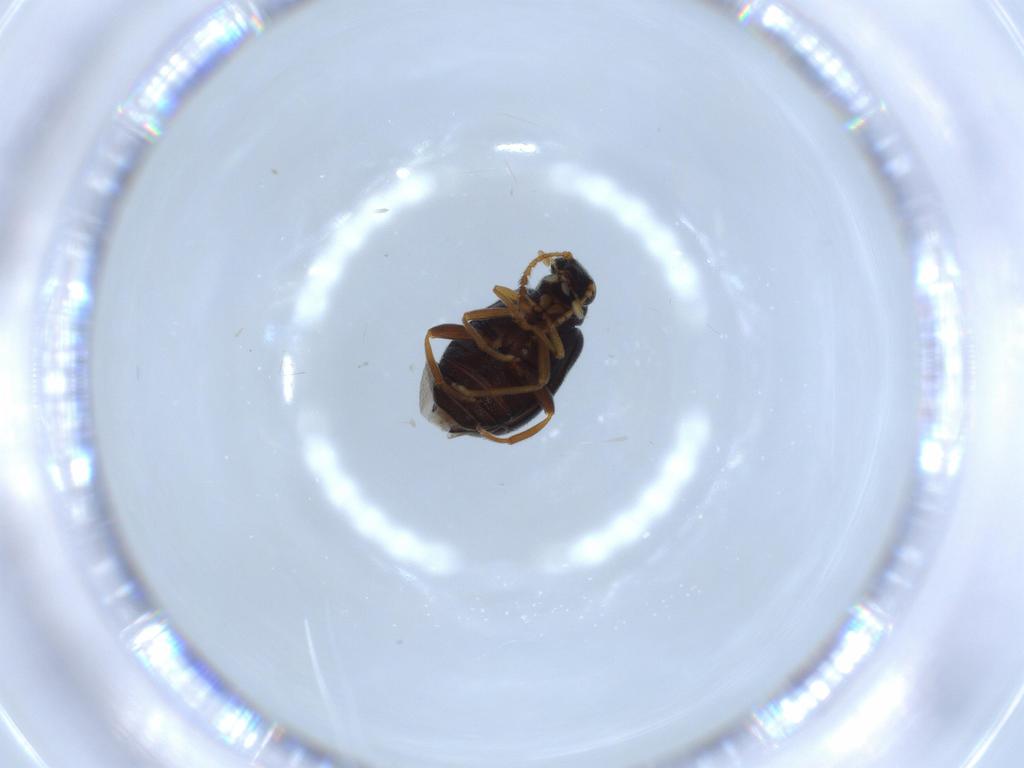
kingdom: Animalia
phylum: Arthropoda
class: Insecta
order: Coleoptera
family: Aderidae
